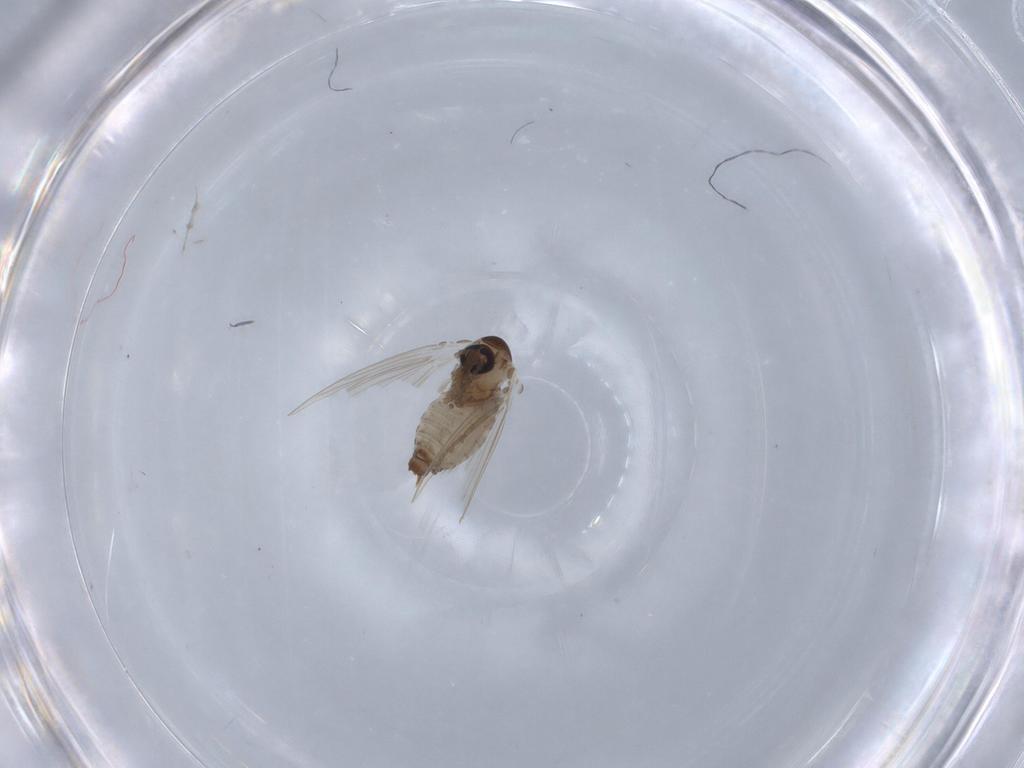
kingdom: Animalia
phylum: Arthropoda
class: Insecta
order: Diptera
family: Psychodidae
